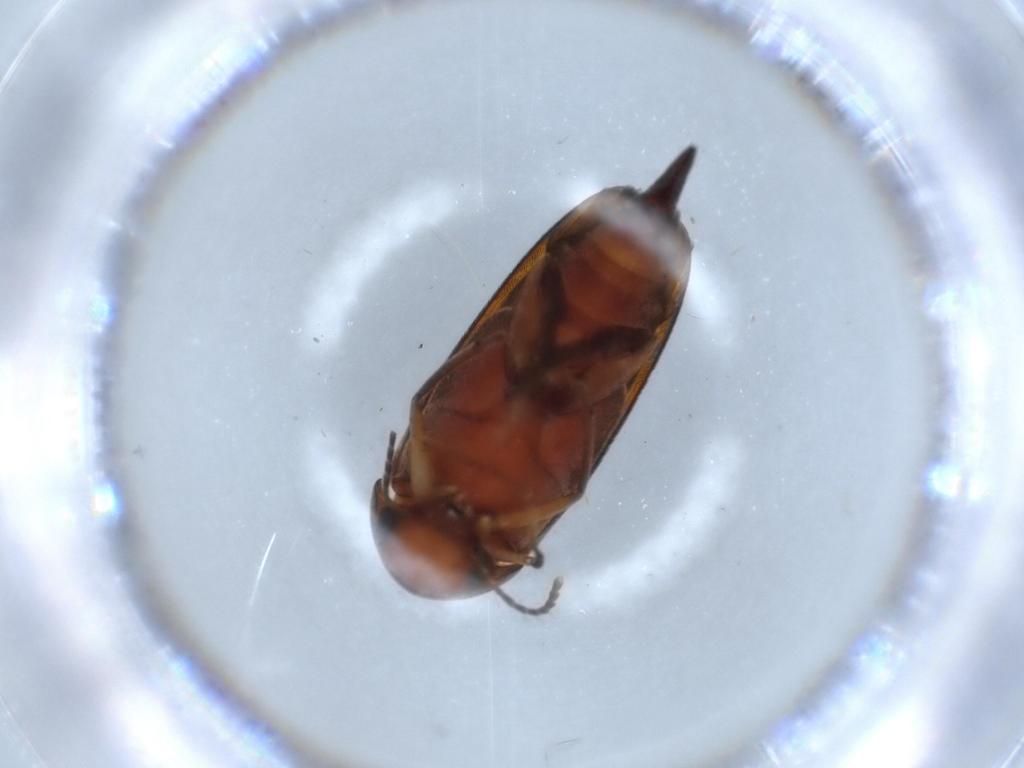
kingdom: Animalia
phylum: Arthropoda
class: Insecta
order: Coleoptera
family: Mordellidae
